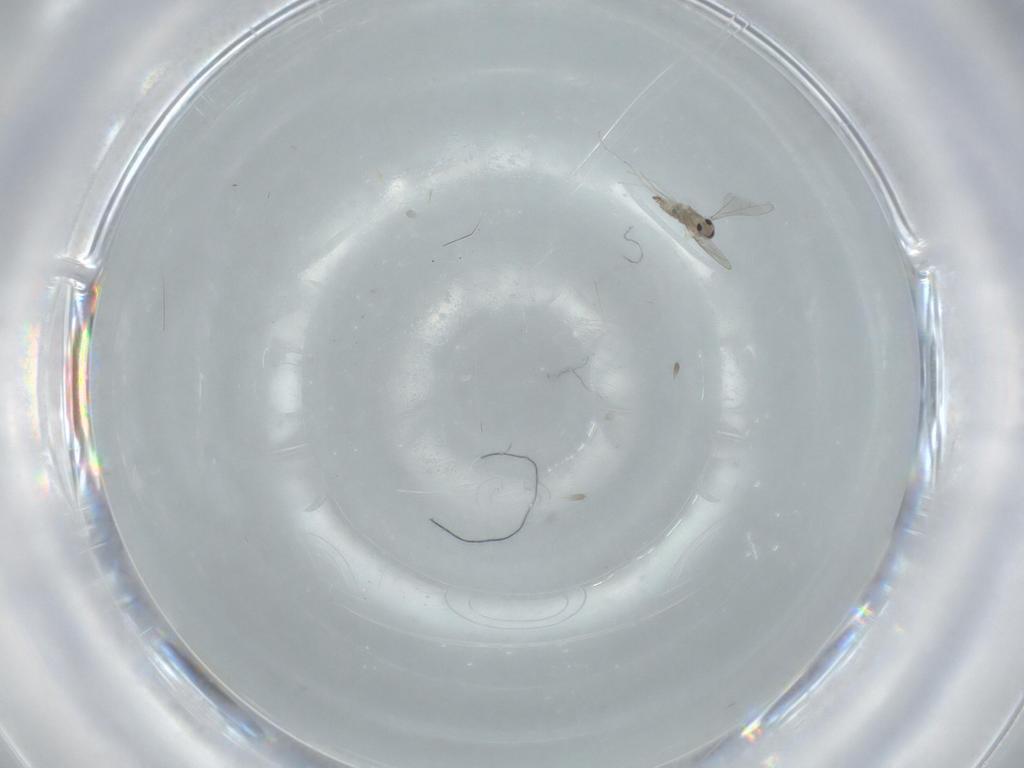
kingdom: Animalia
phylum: Arthropoda
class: Insecta
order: Diptera
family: Cecidomyiidae
